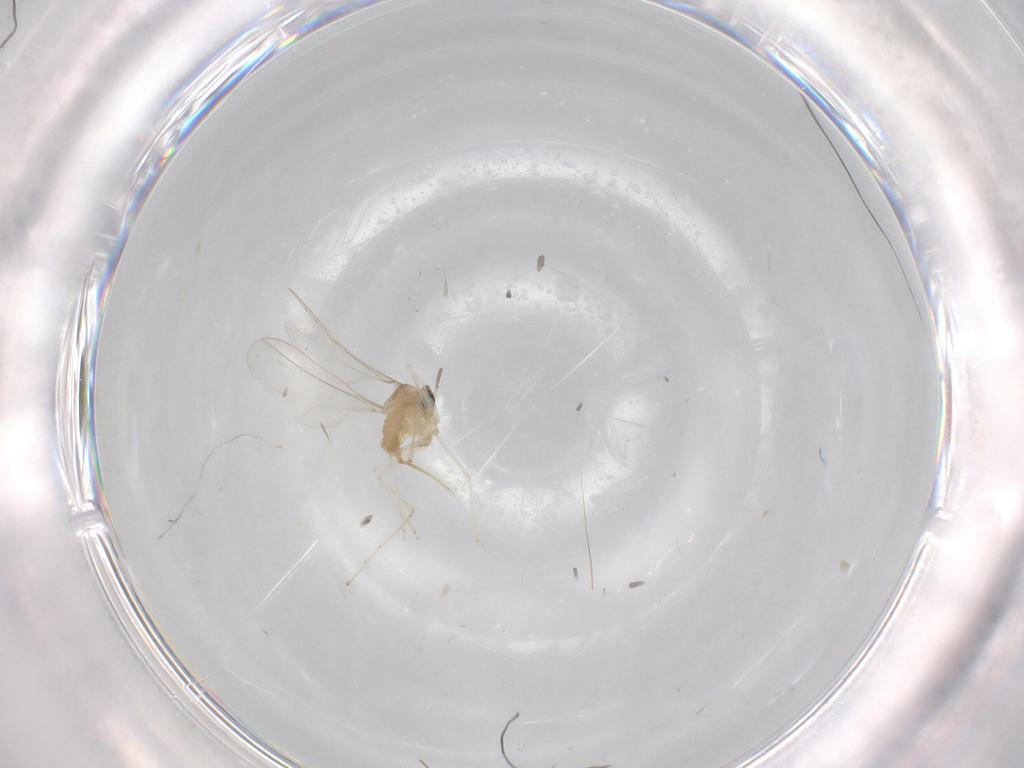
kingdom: Animalia
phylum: Arthropoda
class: Insecta
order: Diptera
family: Cecidomyiidae
